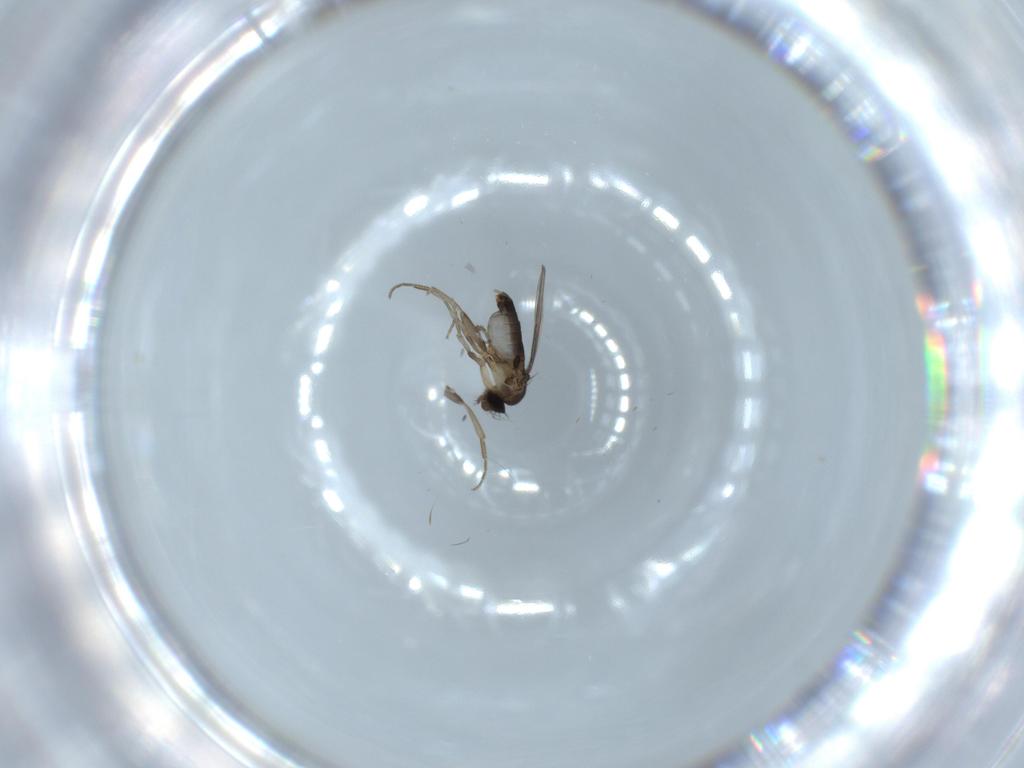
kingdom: Animalia
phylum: Arthropoda
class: Insecta
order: Diptera
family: Phoridae
